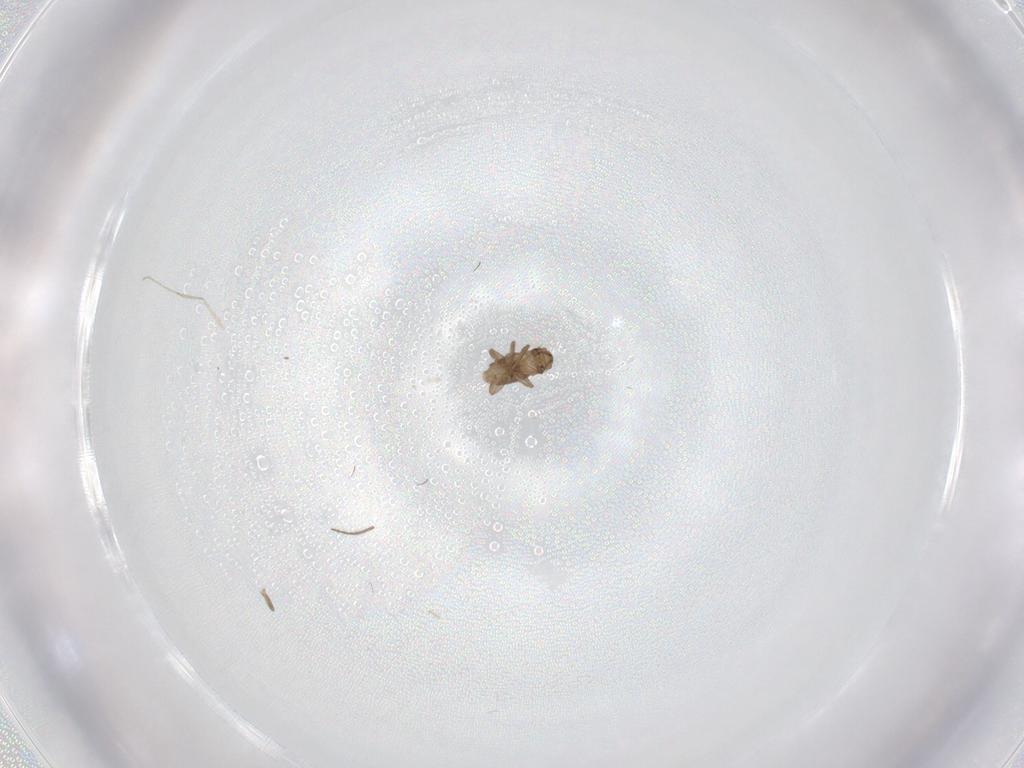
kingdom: Animalia
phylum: Arthropoda
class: Insecta
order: Diptera
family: Ceratopogonidae
